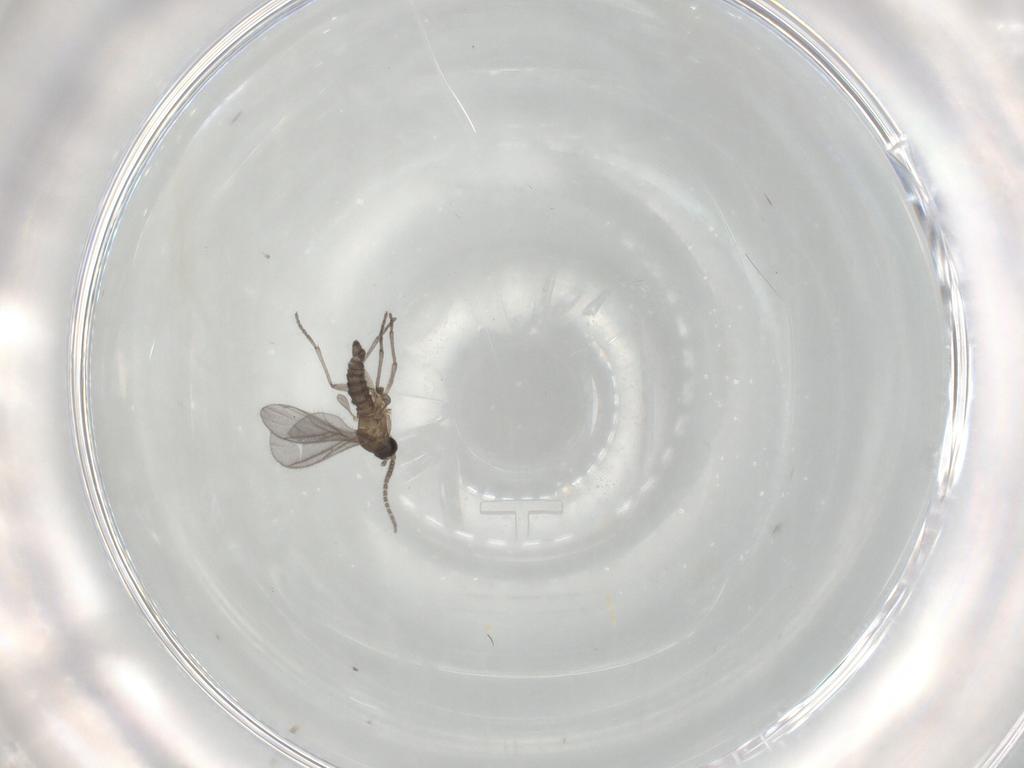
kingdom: Animalia
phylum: Arthropoda
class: Insecta
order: Diptera
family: Sciaridae
